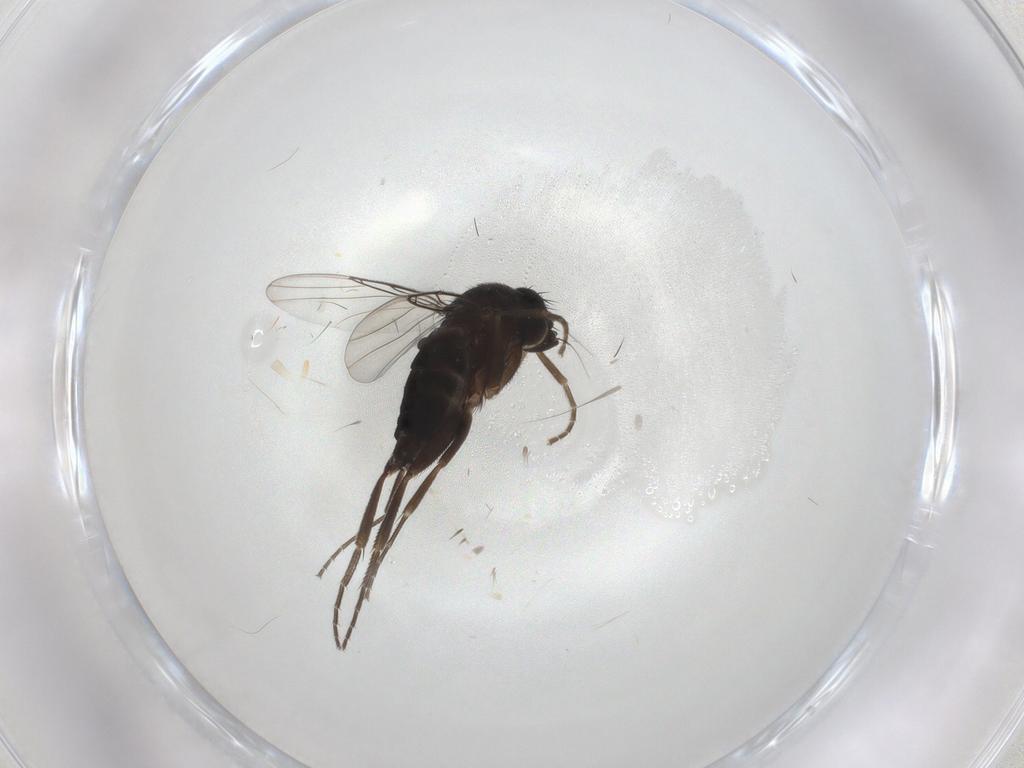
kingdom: Animalia
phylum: Arthropoda
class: Insecta
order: Diptera
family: Phoridae
